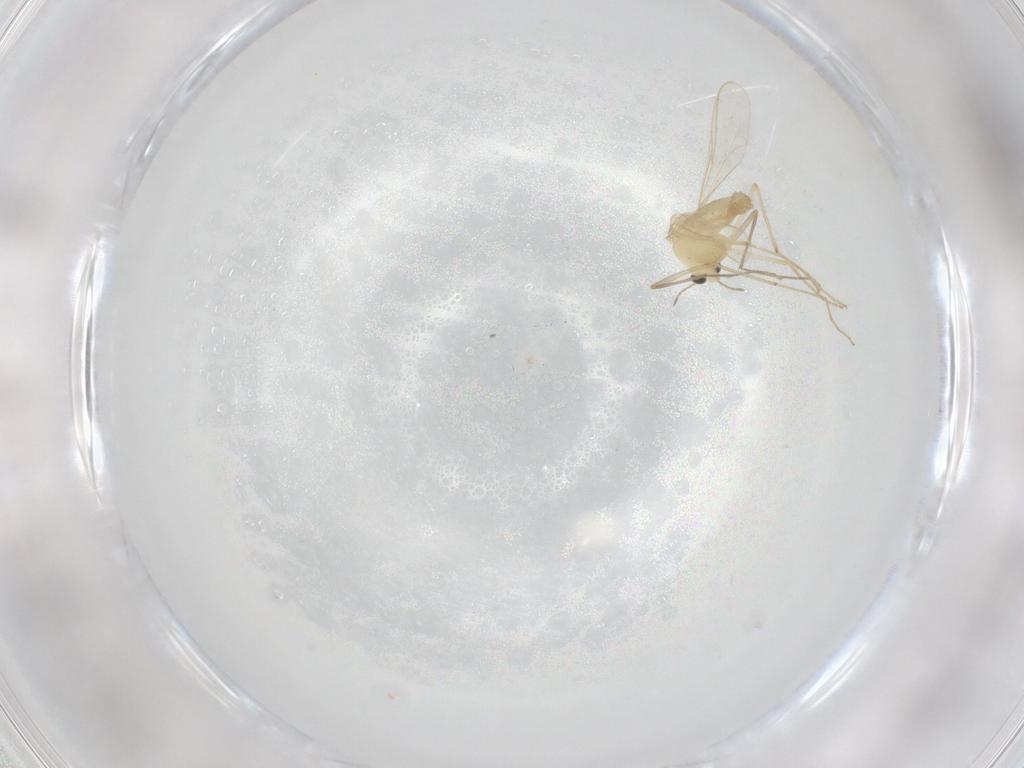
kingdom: Animalia
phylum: Arthropoda
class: Insecta
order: Diptera
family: Chironomidae
